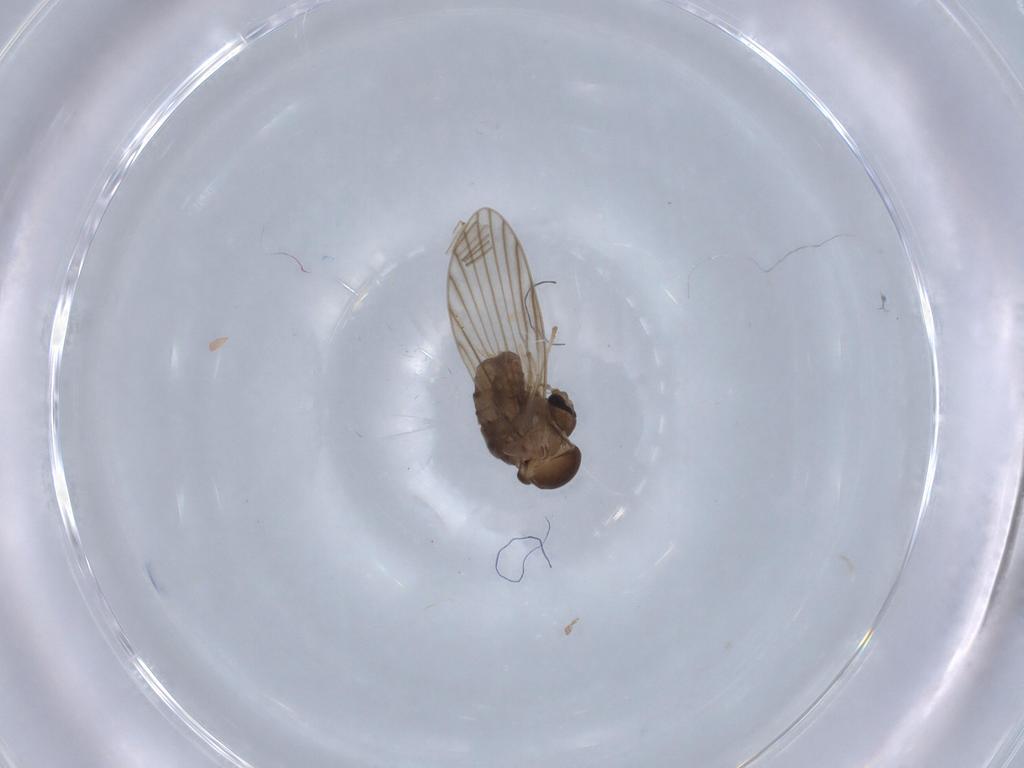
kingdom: Animalia
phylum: Arthropoda
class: Insecta
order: Diptera
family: Psychodidae
